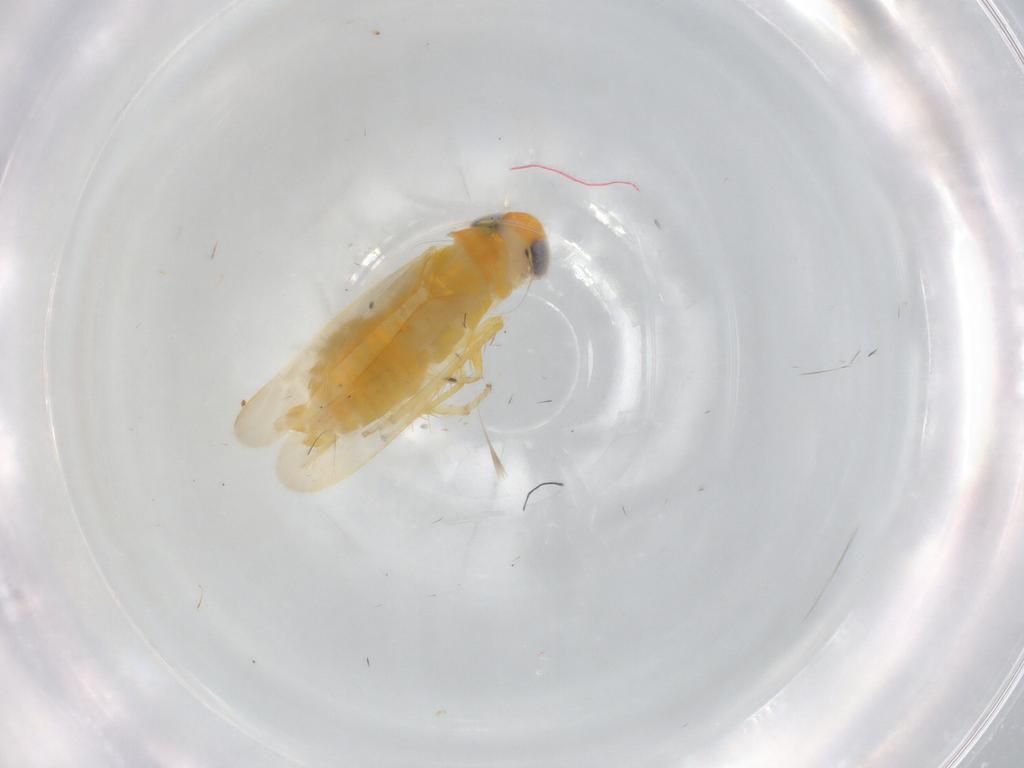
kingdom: Animalia
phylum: Arthropoda
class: Insecta
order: Hemiptera
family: Cicadellidae
